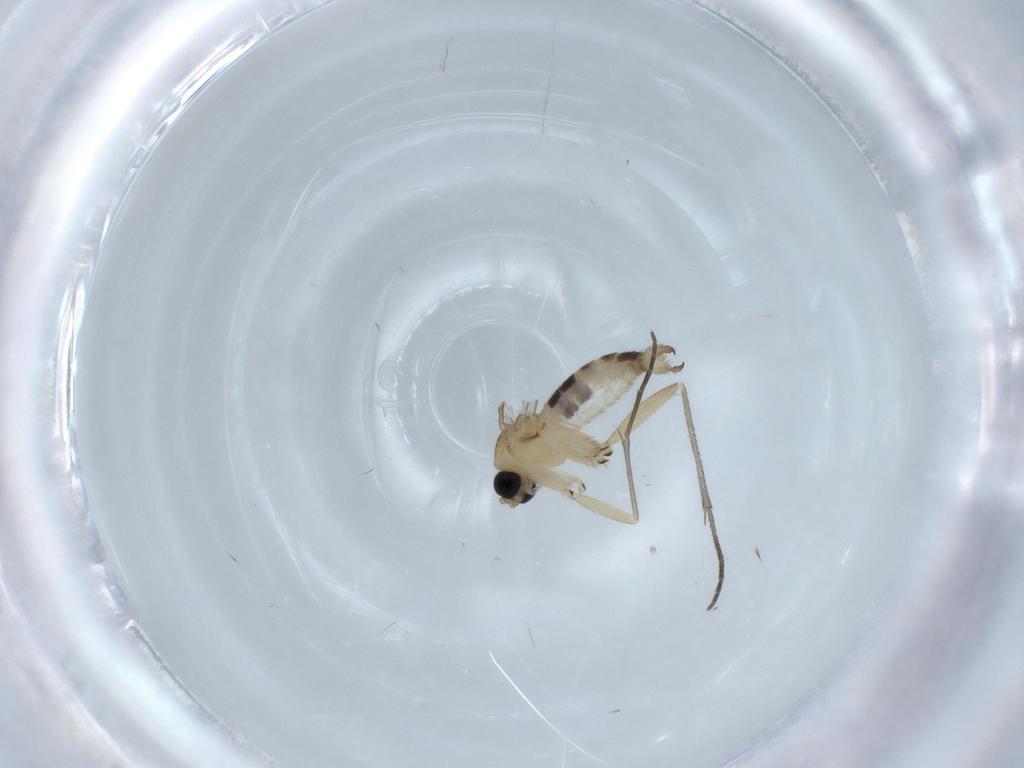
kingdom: Animalia
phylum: Arthropoda
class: Insecta
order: Diptera
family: Sciaridae
